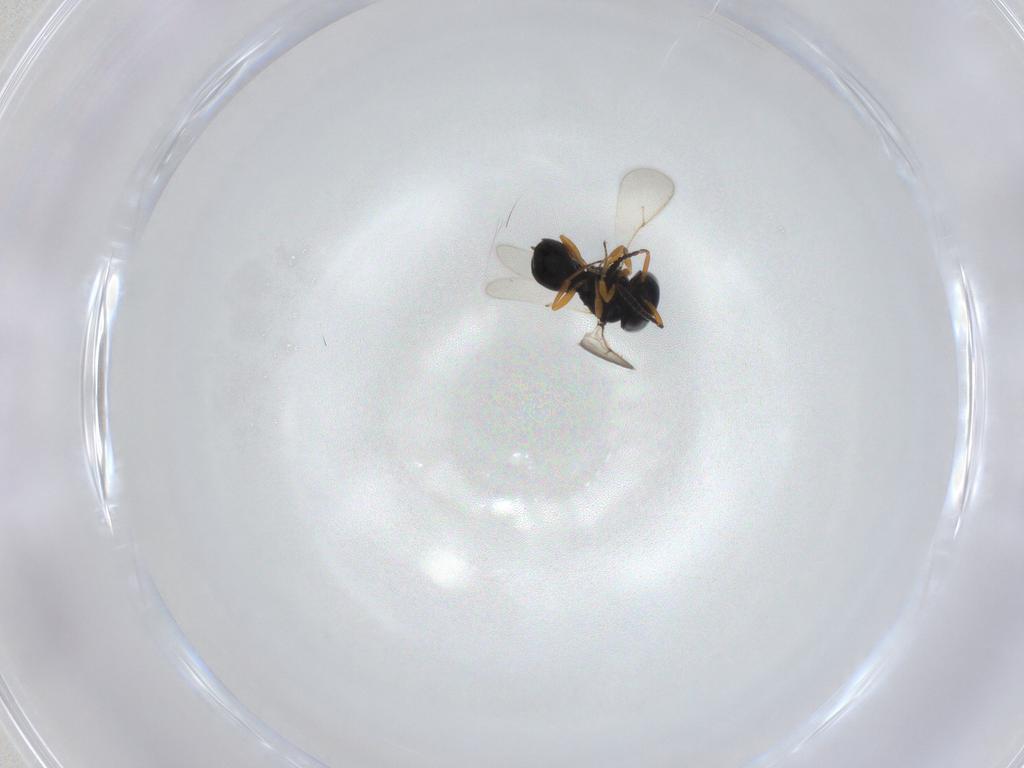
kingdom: Animalia
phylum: Arthropoda
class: Insecta
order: Hymenoptera
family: Scelionidae
